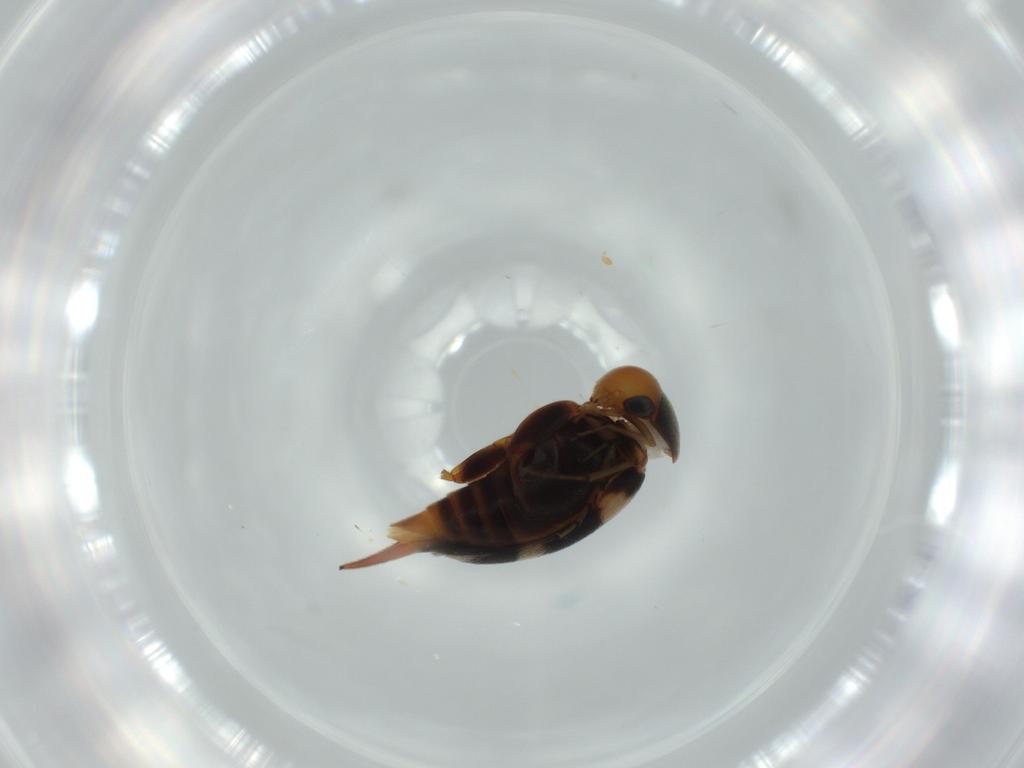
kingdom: Animalia
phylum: Arthropoda
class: Insecta
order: Coleoptera
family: Mordellidae
